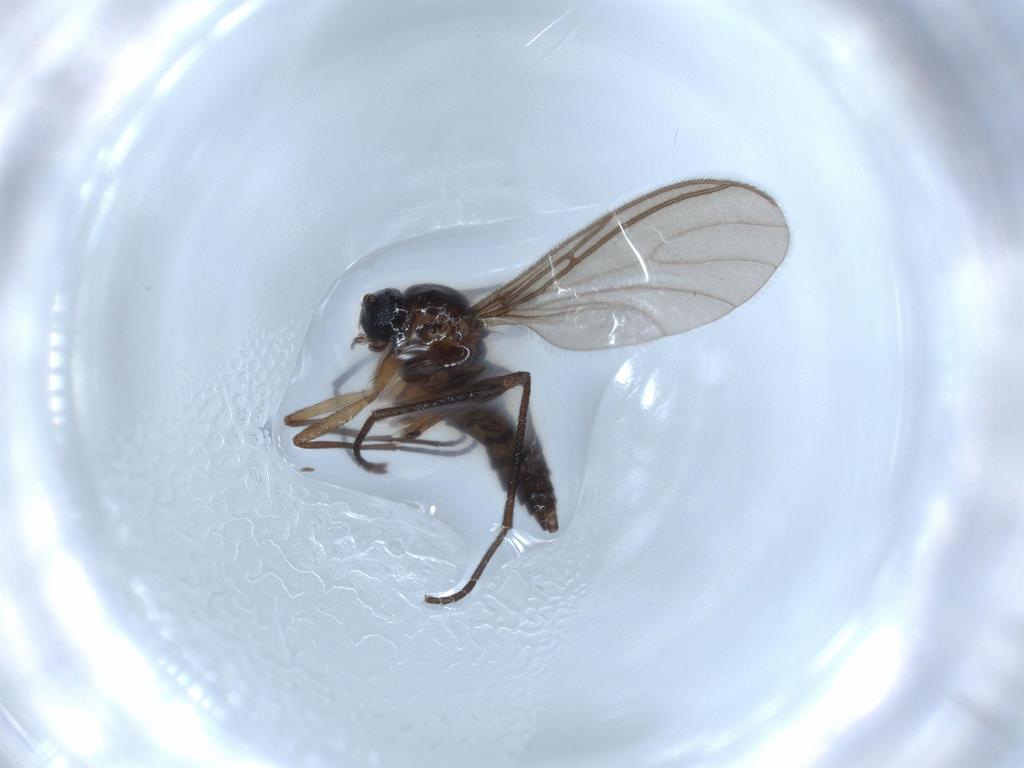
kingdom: Animalia
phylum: Arthropoda
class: Insecta
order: Diptera
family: Sciaridae
